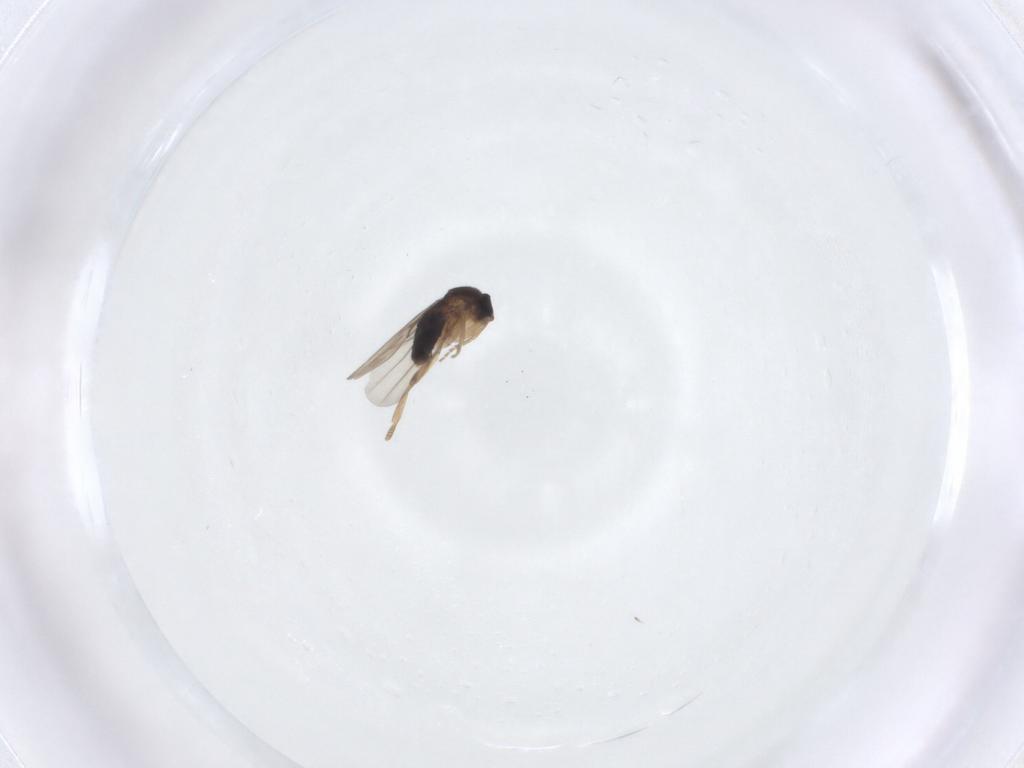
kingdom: Animalia
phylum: Arthropoda
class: Insecta
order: Diptera
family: Phoridae
